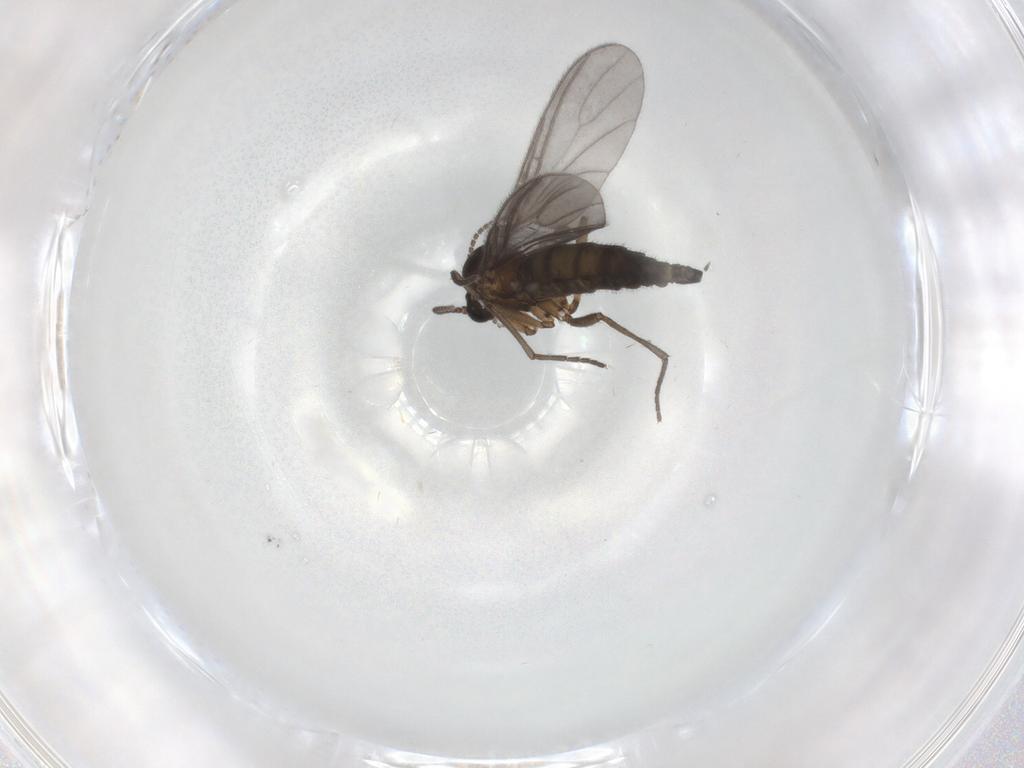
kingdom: Animalia
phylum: Arthropoda
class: Insecta
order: Diptera
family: Sciaridae
